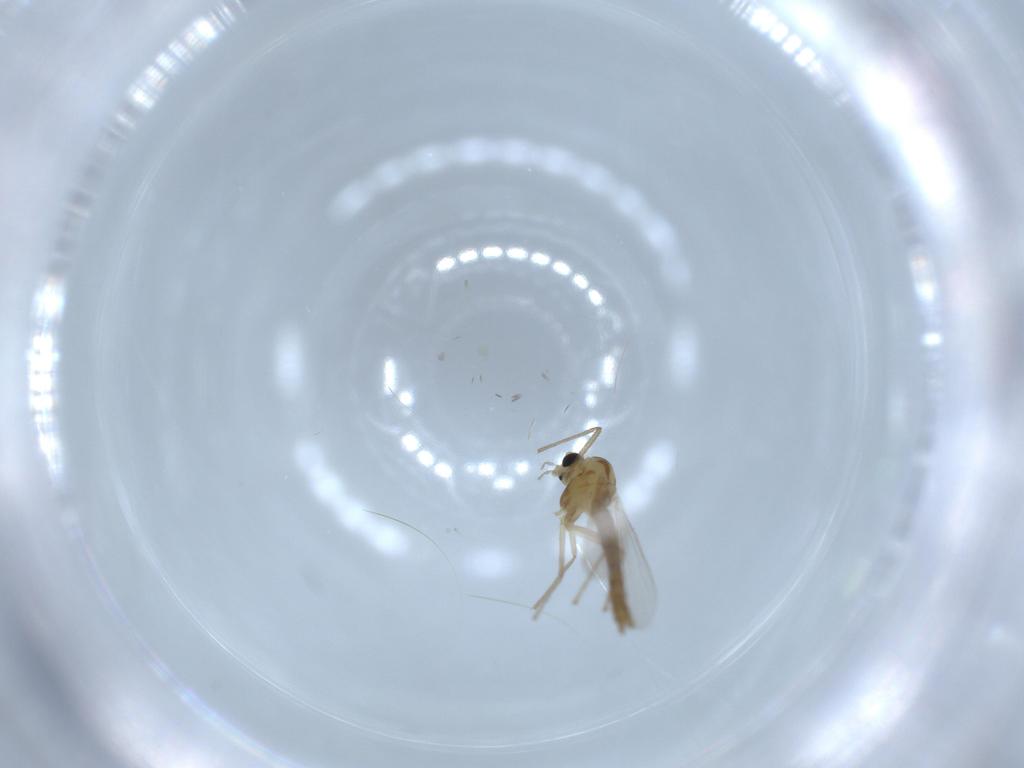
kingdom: Animalia
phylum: Arthropoda
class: Insecta
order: Diptera
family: Chironomidae
